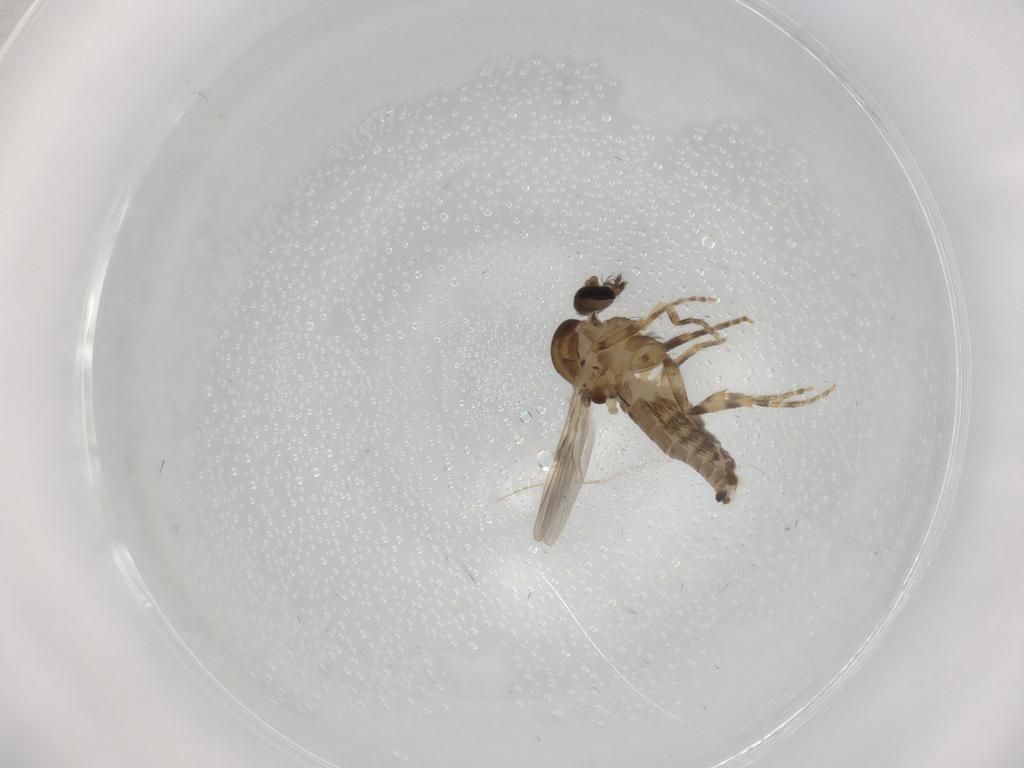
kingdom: Animalia
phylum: Arthropoda
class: Insecta
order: Diptera
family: Ceratopogonidae
